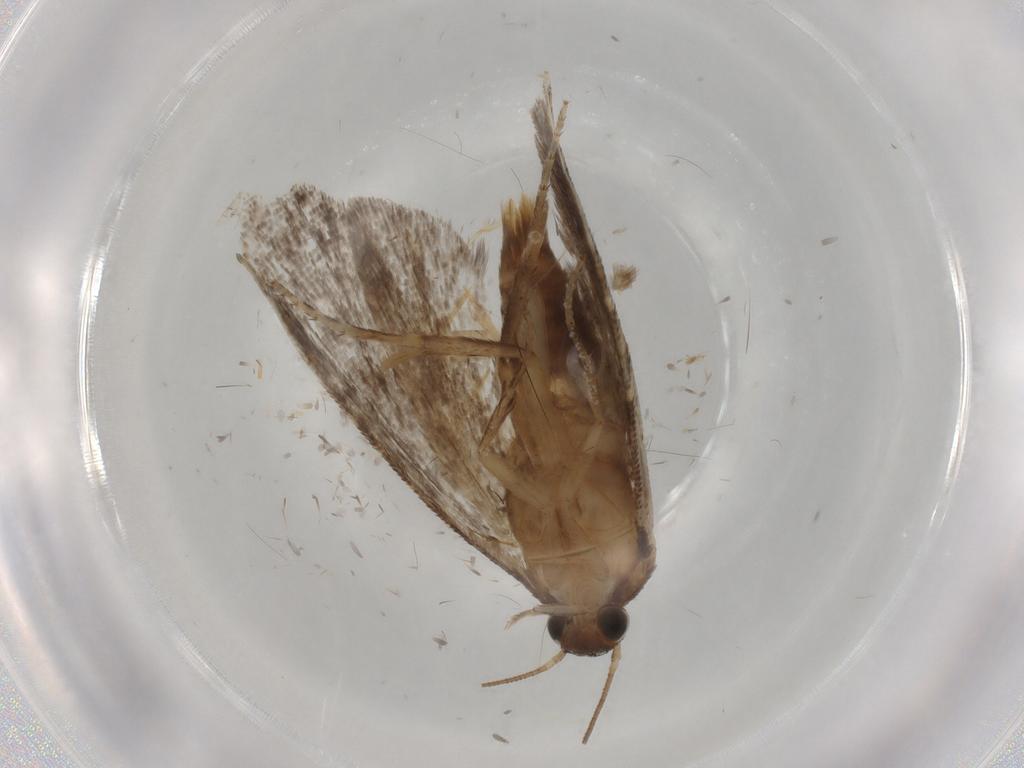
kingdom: Animalia
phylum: Arthropoda
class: Insecta
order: Lepidoptera
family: Glyphipterigidae
